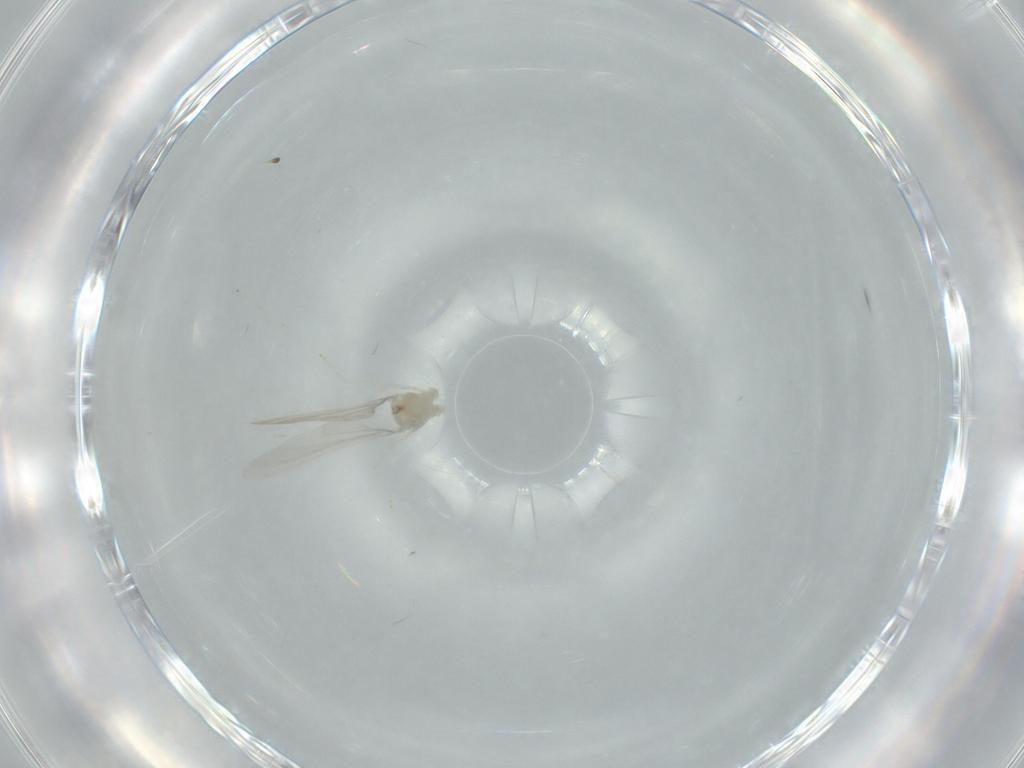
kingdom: Animalia
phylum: Arthropoda
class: Insecta
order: Diptera
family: Cecidomyiidae
